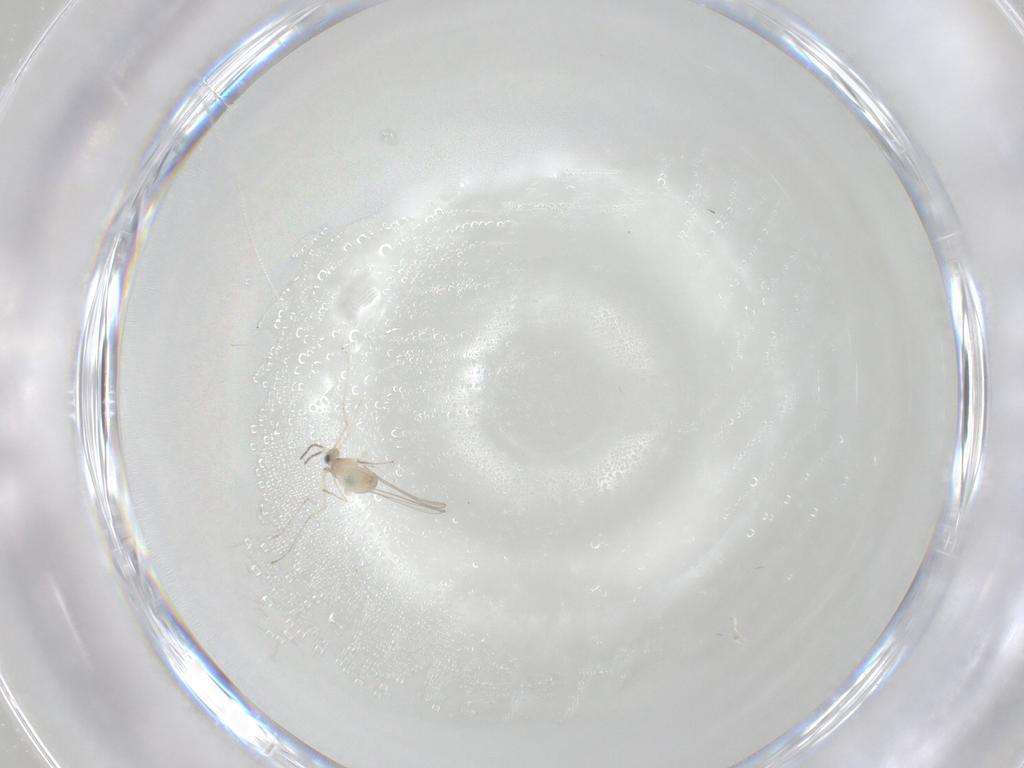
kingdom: Animalia
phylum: Arthropoda
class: Insecta
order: Diptera
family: Cecidomyiidae
